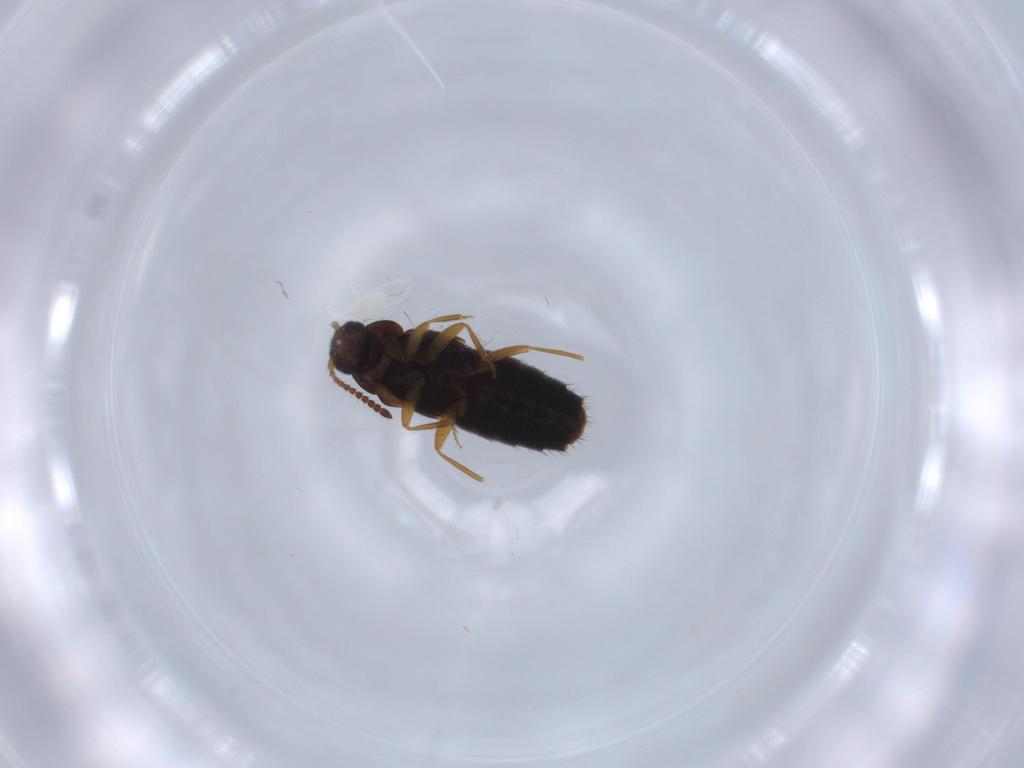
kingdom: Animalia
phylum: Arthropoda
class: Insecta
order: Coleoptera
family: Staphylinidae
